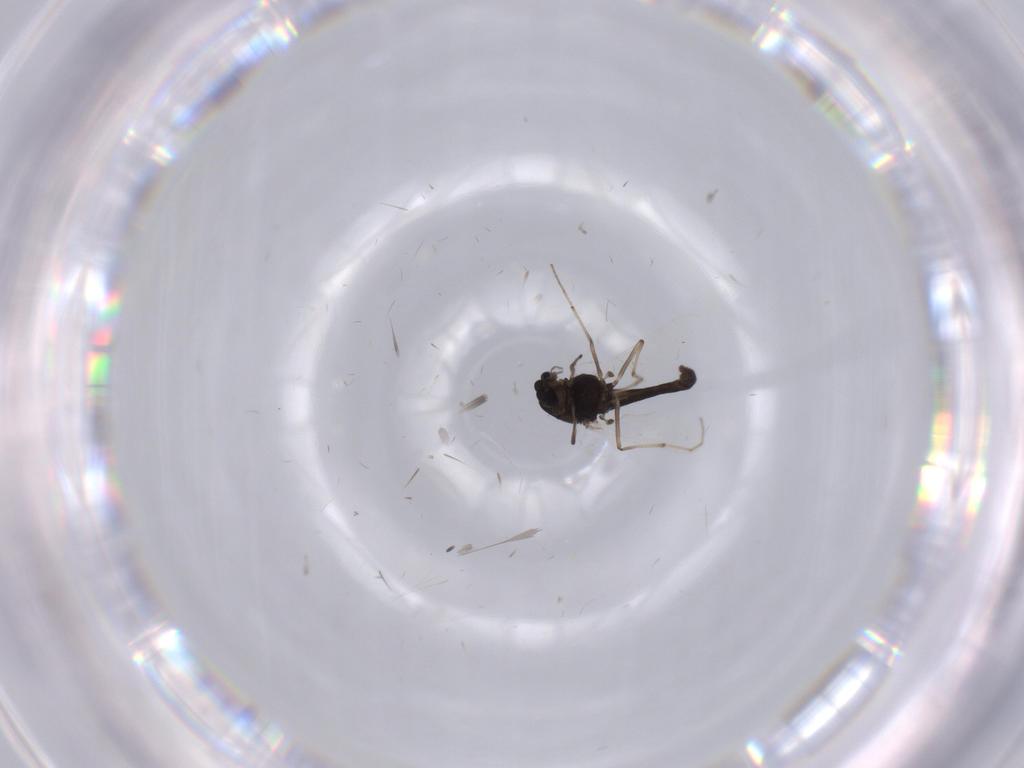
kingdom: Animalia
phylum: Arthropoda
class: Insecta
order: Diptera
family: Chironomidae
